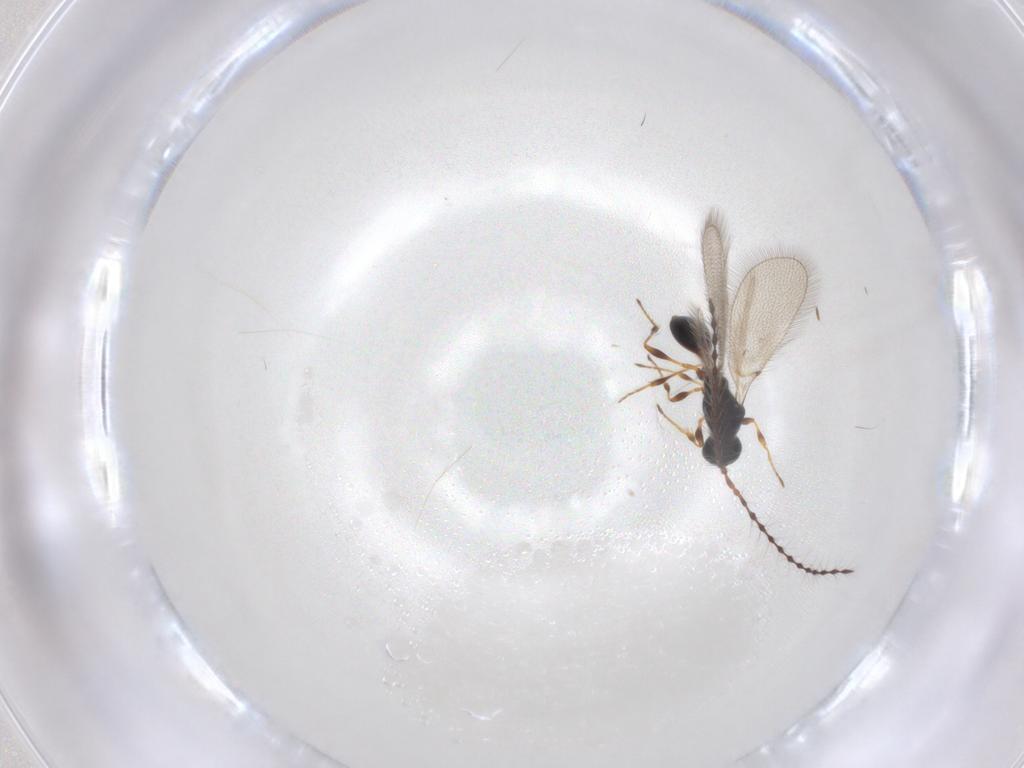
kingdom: Animalia
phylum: Arthropoda
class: Insecta
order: Hymenoptera
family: Diapriidae
